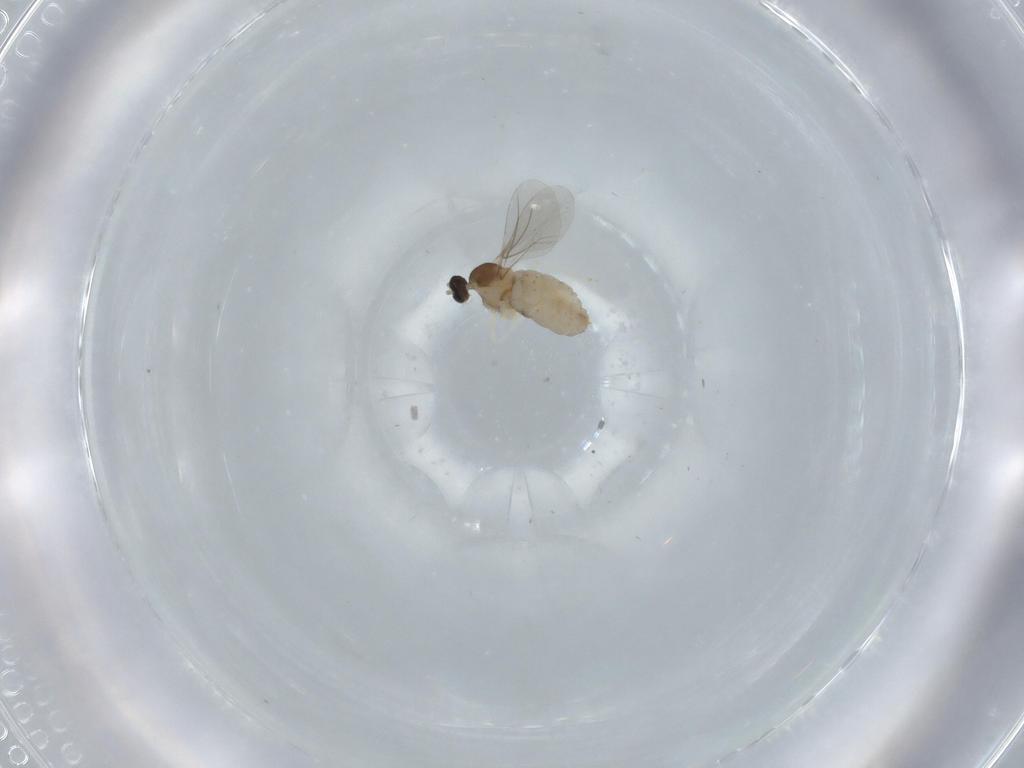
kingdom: Animalia
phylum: Arthropoda
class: Insecta
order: Diptera
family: Cecidomyiidae
